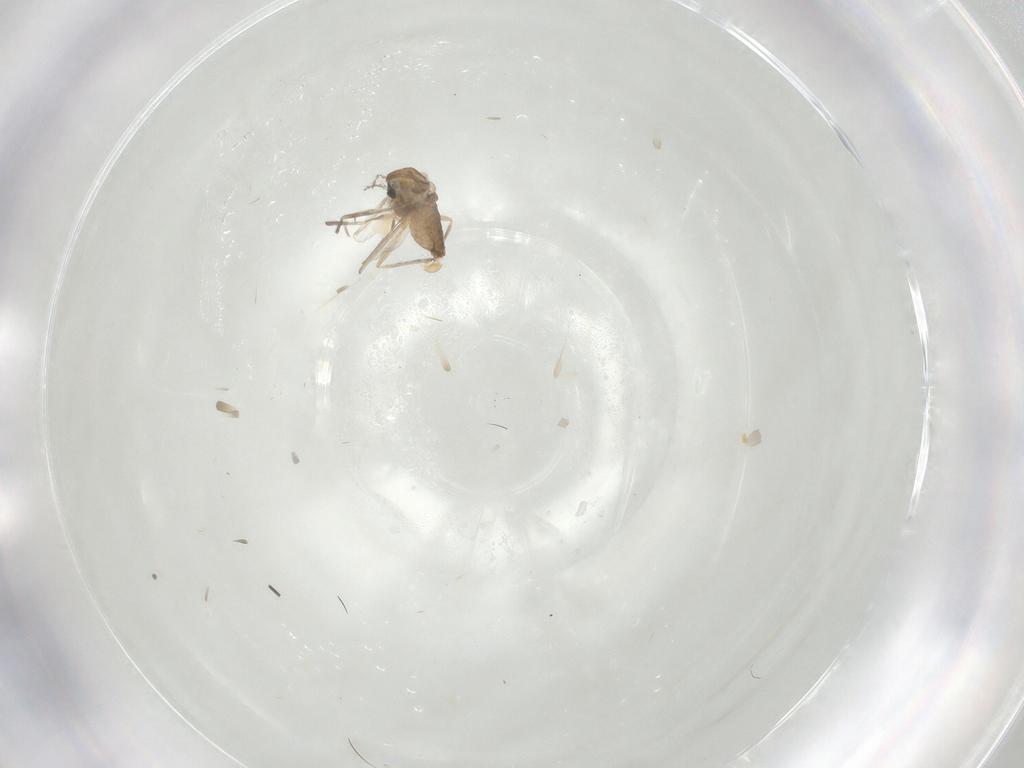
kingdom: Animalia
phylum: Arthropoda
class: Insecta
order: Diptera
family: Chironomidae
